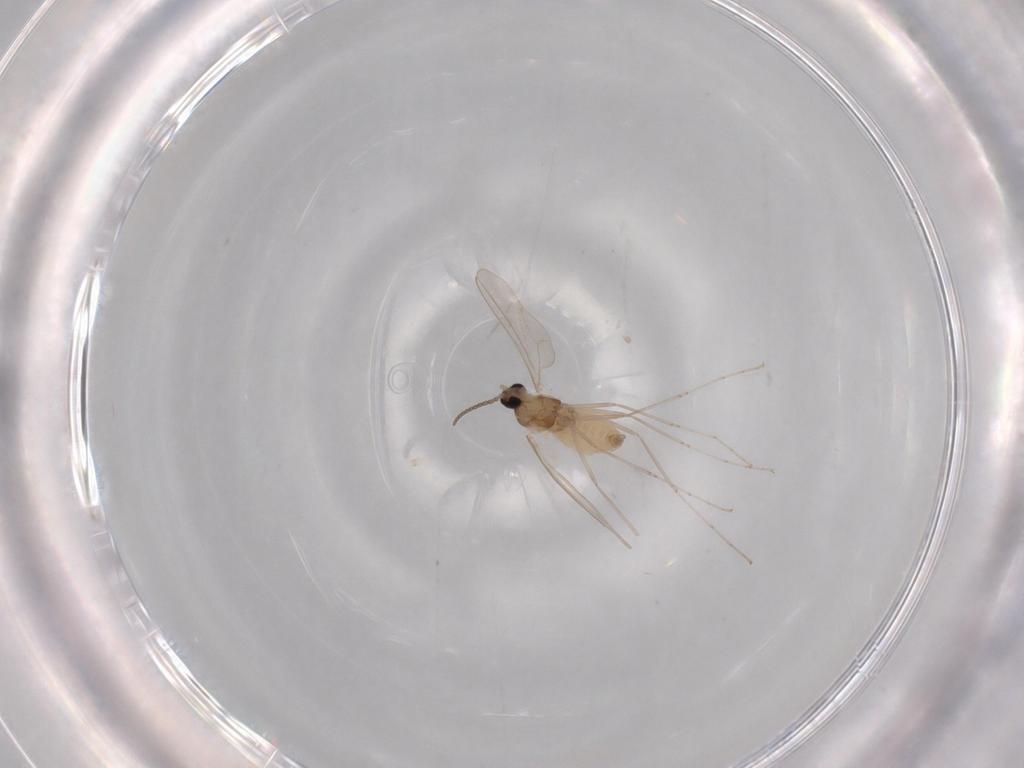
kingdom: Animalia
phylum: Arthropoda
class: Insecta
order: Diptera
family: Cecidomyiidae
